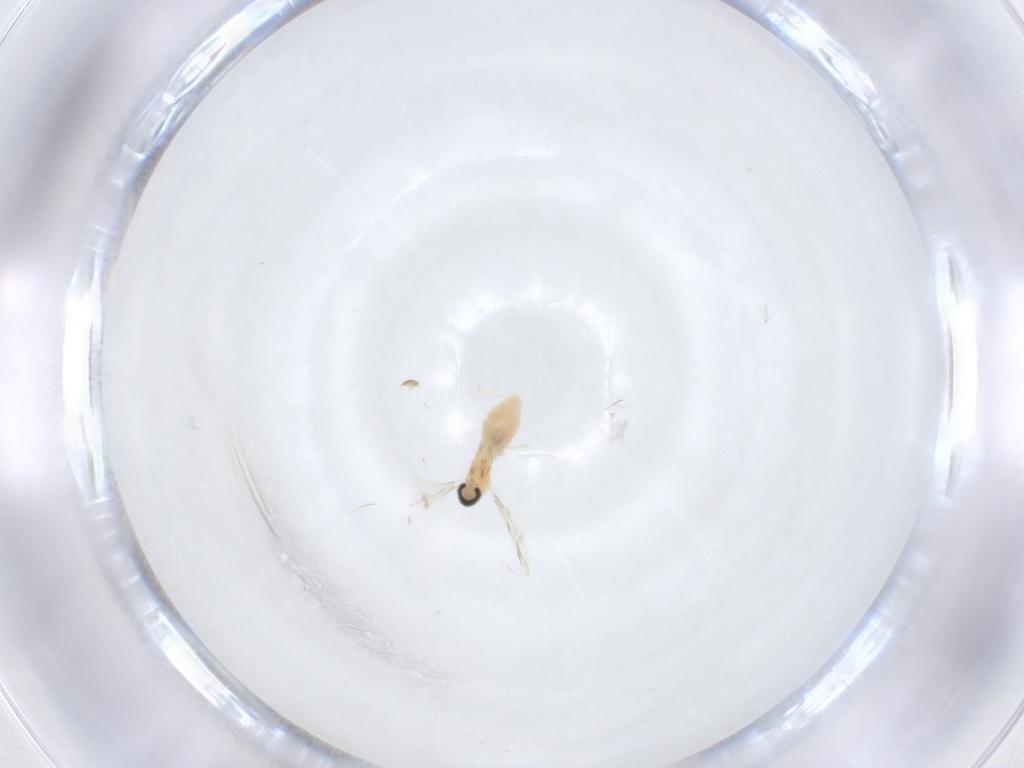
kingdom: Animalia
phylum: Arthropoda
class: Insecta
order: Diptera
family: Cecidomyiidae
